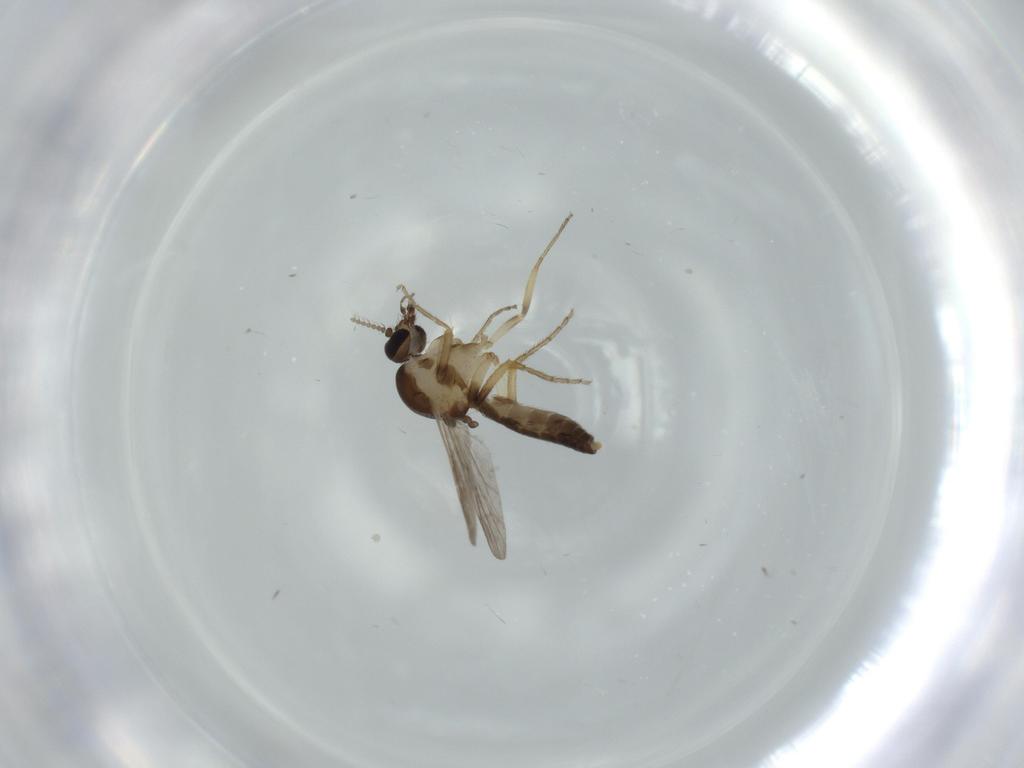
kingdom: Animalia
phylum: Arthropoda
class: Insecta
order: Diptera
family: Ceratopogonidae
